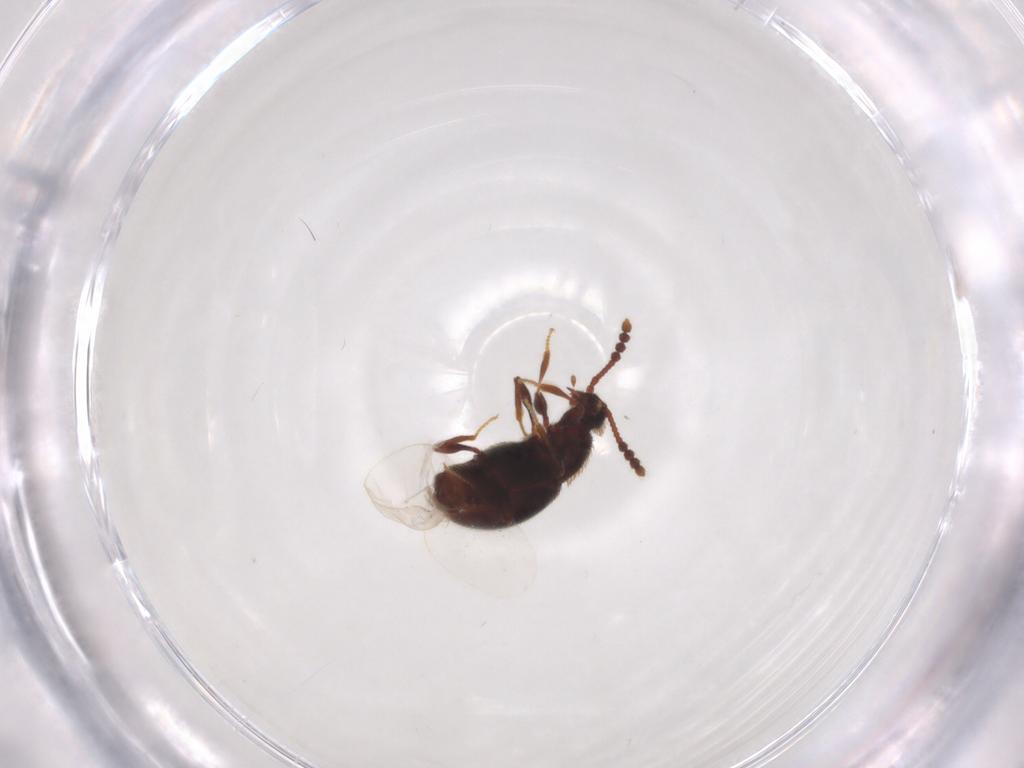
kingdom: Animalia
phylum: Arthropoda
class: Insecta
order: Coleoptera
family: Staphylinidae
